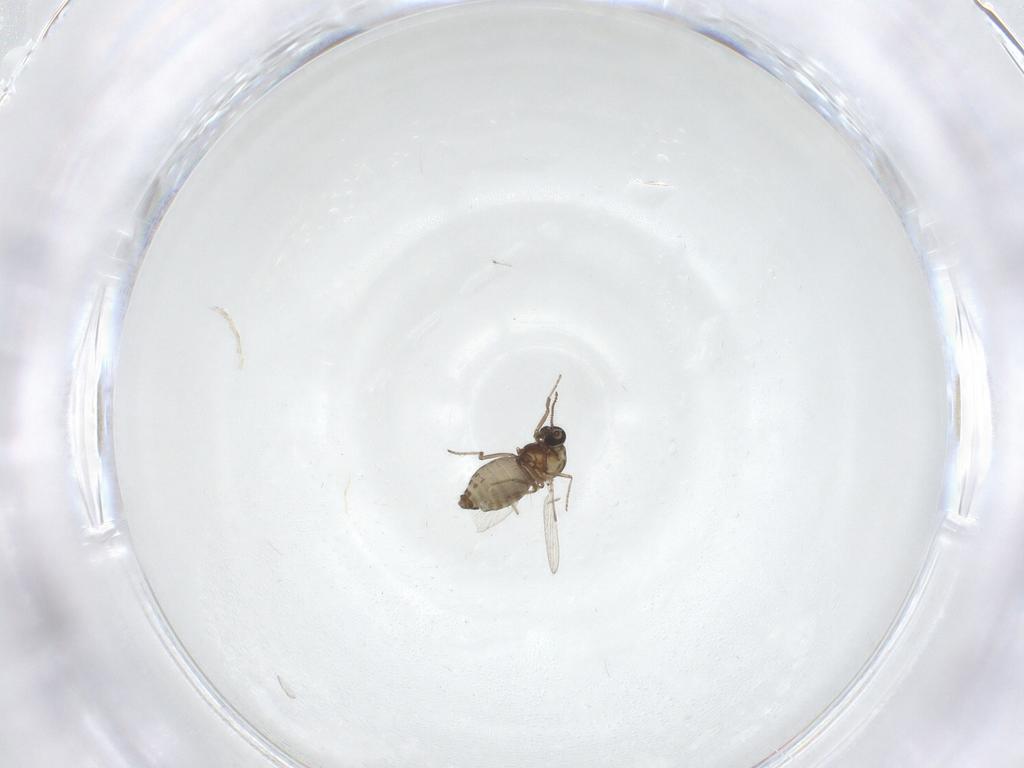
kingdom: Animalia
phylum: Arthropoda
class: Insecta
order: Diptera
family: Ceratopogonidae
